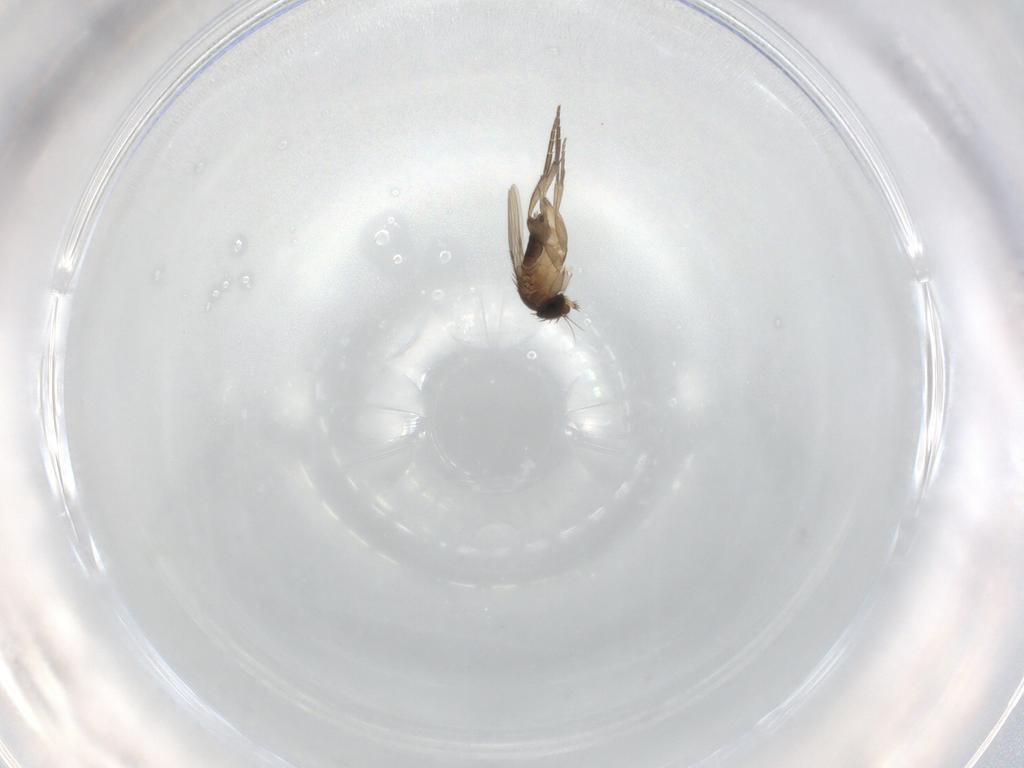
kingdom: Animalia
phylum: Arthropoda
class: Insecta
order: Diptera
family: Phoridae
